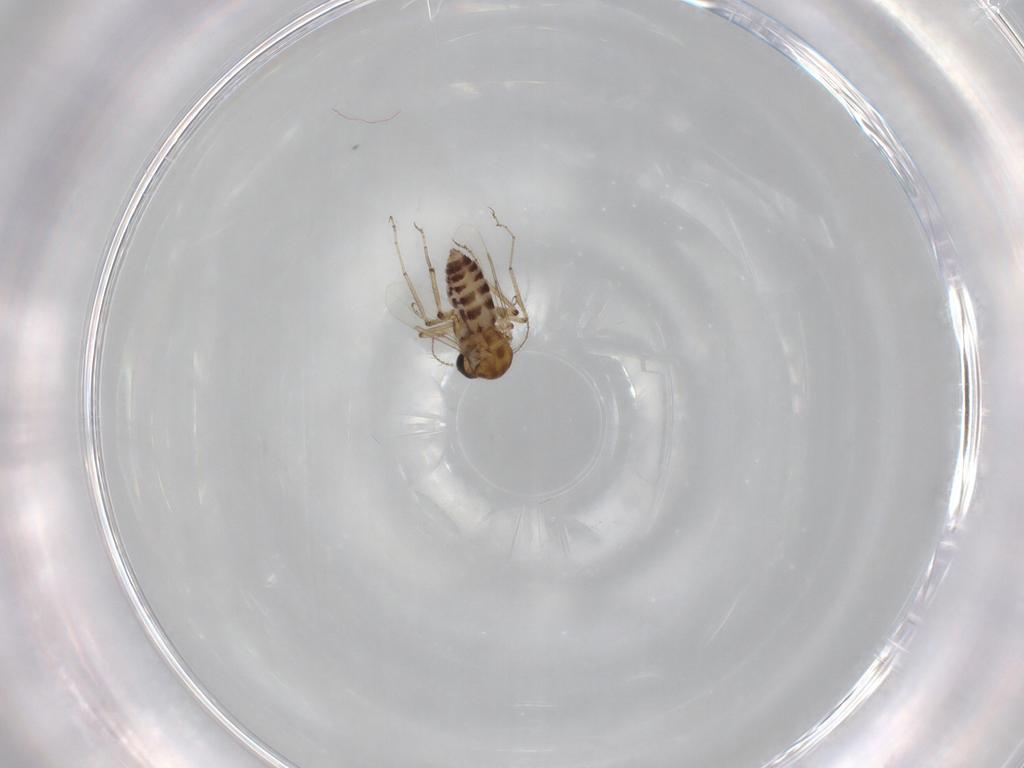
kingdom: Animalia
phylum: Arthropoda
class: Insecta
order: Diptera
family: Ceratopogonidae
